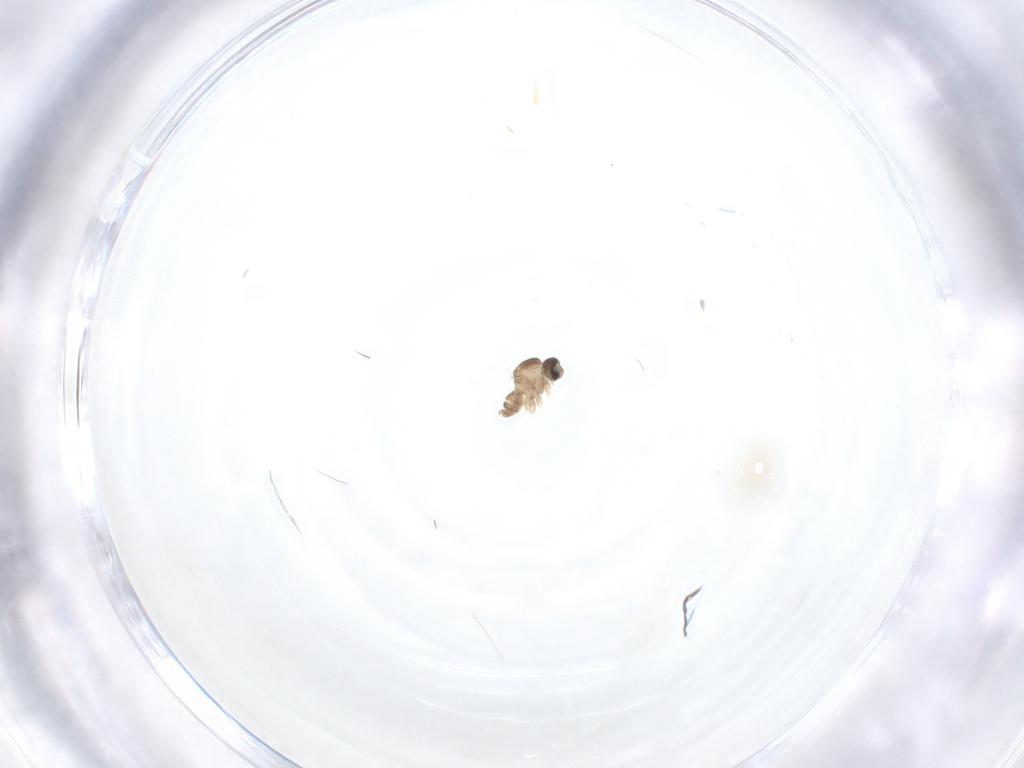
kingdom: Animalia
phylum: Arthropoda
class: Insecta
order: Diptera
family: Cecidomyiidae
